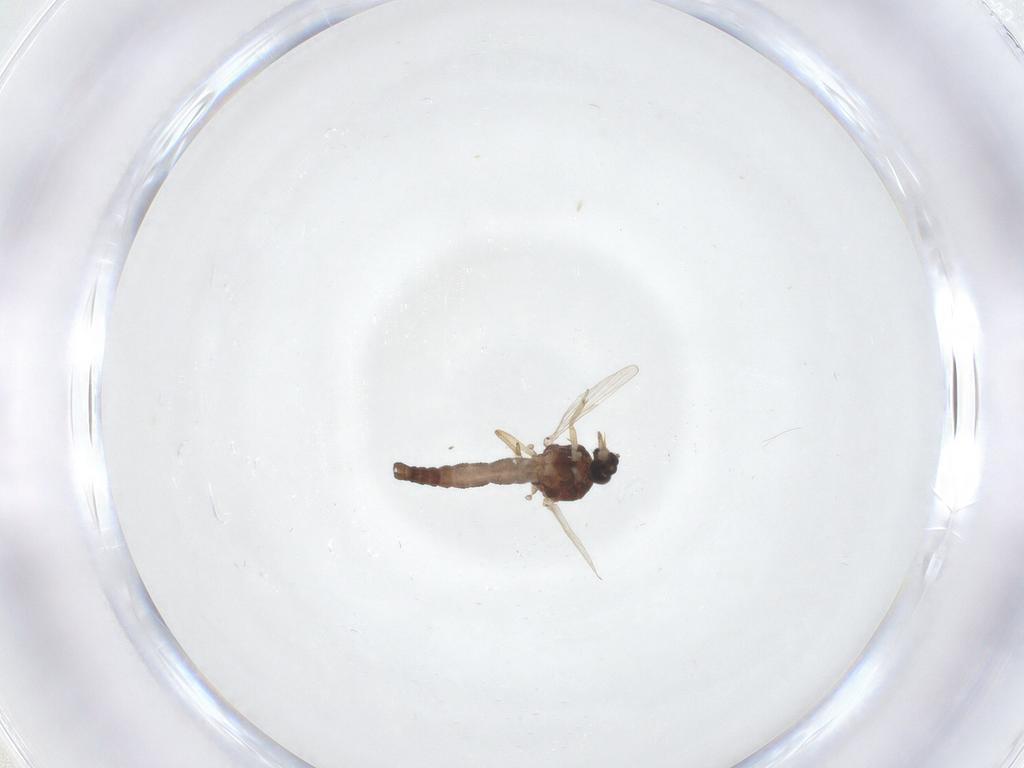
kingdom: Animalia
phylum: Arthropoda
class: Insecta
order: Diptera
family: Ceratopogonidae
